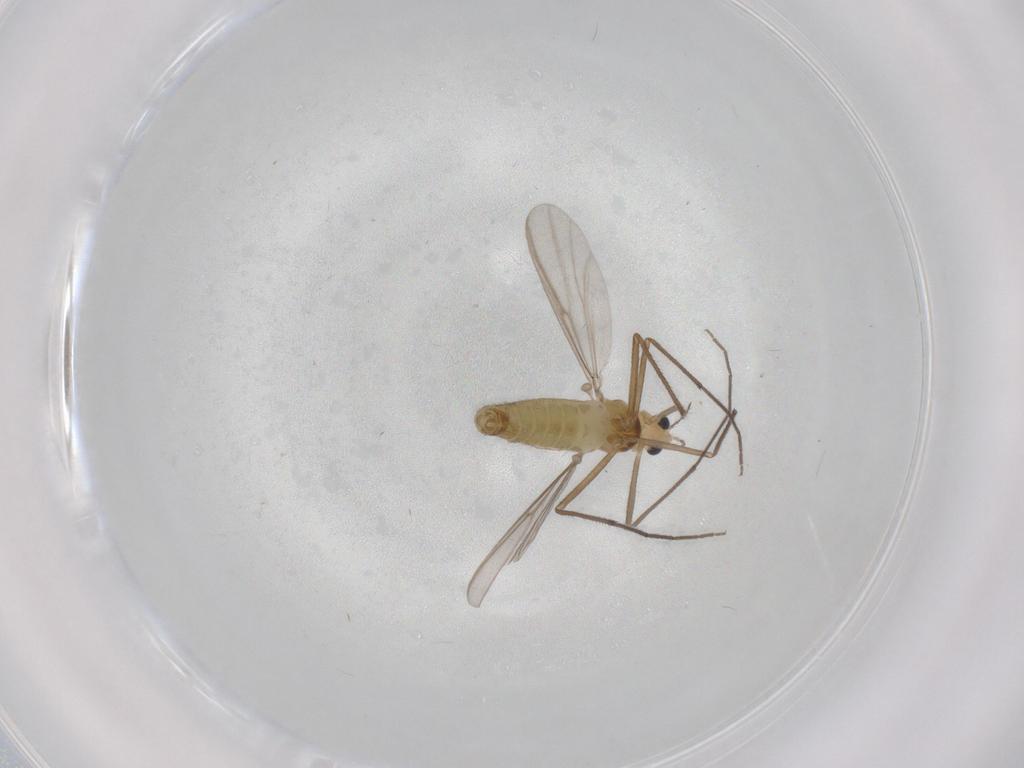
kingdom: Animalia
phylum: Arthropoda
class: Insecta
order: Diptera
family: Chironomidae
